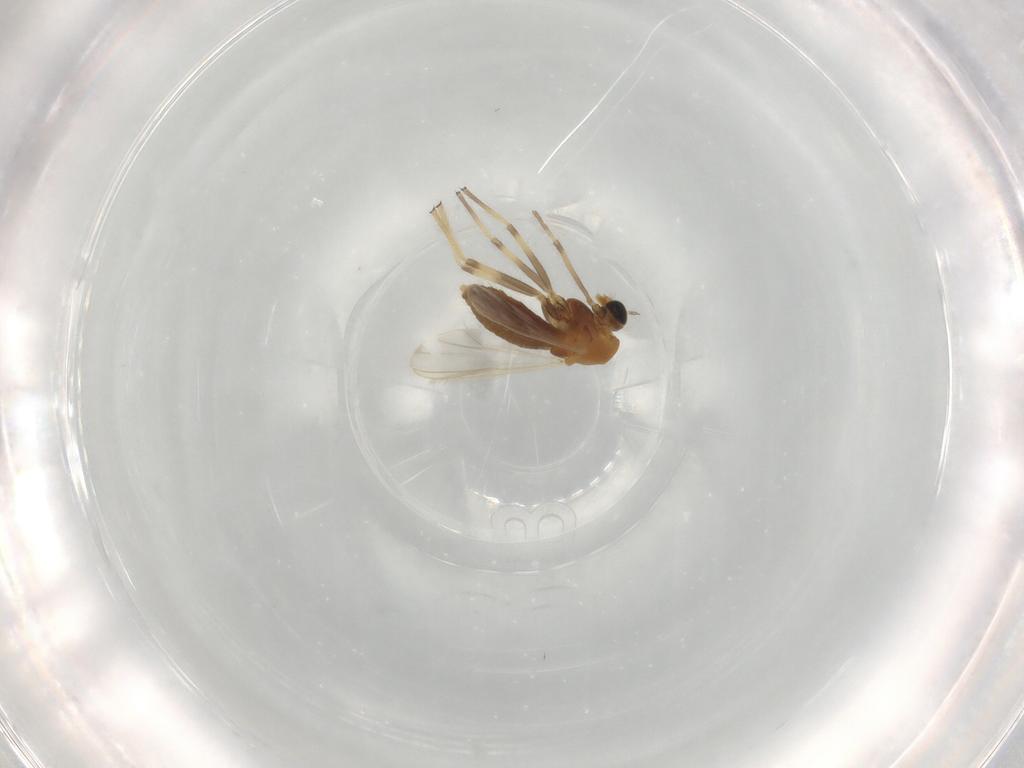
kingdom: Animalia
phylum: Arthropoda
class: Insecta
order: Diptera
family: Chironomidae
